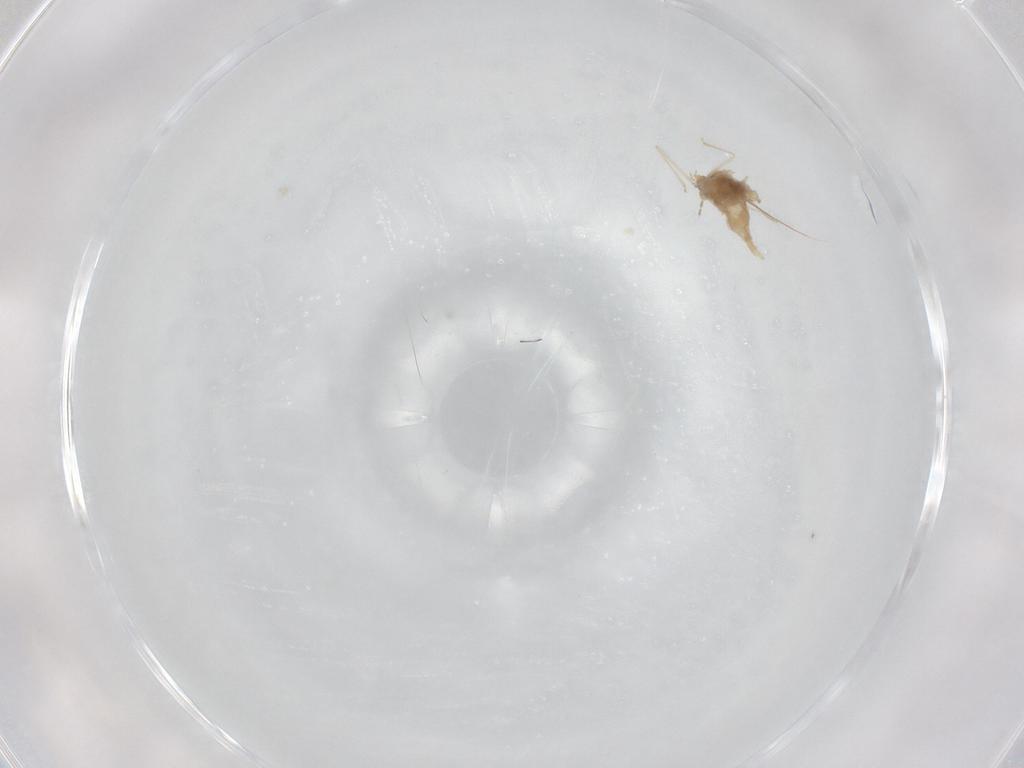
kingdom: Animalia
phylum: Arthropoda
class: Insecta
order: Diptera
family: Cecidomyiidae
